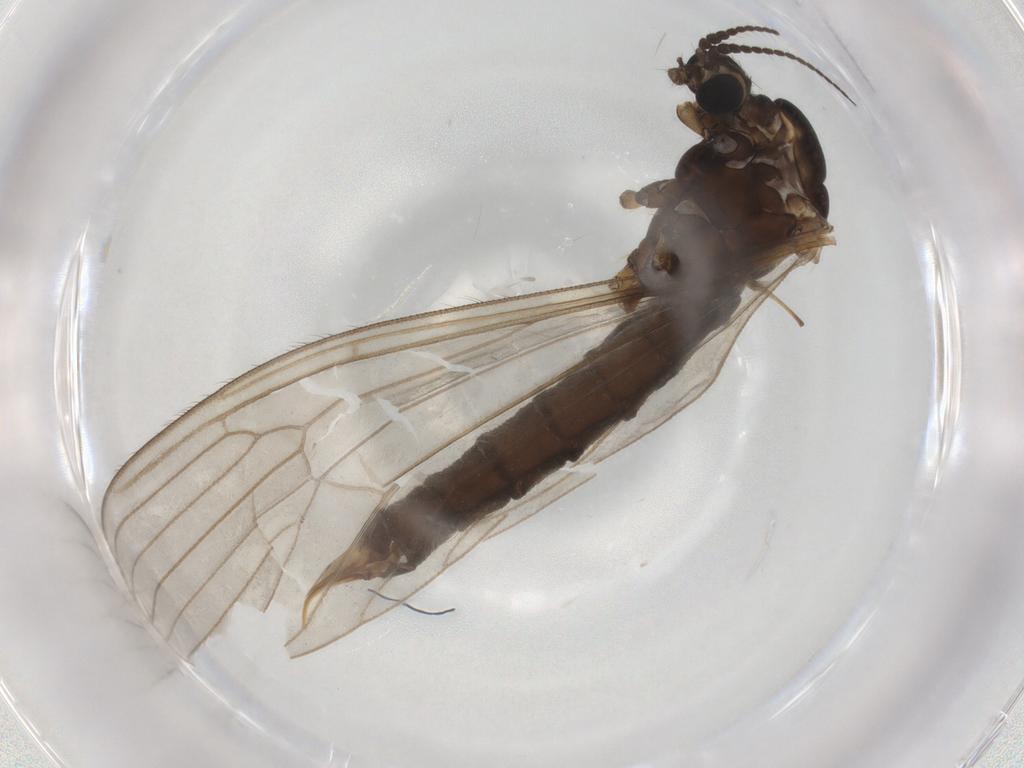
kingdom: Animalia
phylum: Arthropoda
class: Insecta
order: Diptera
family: Limoniidae
